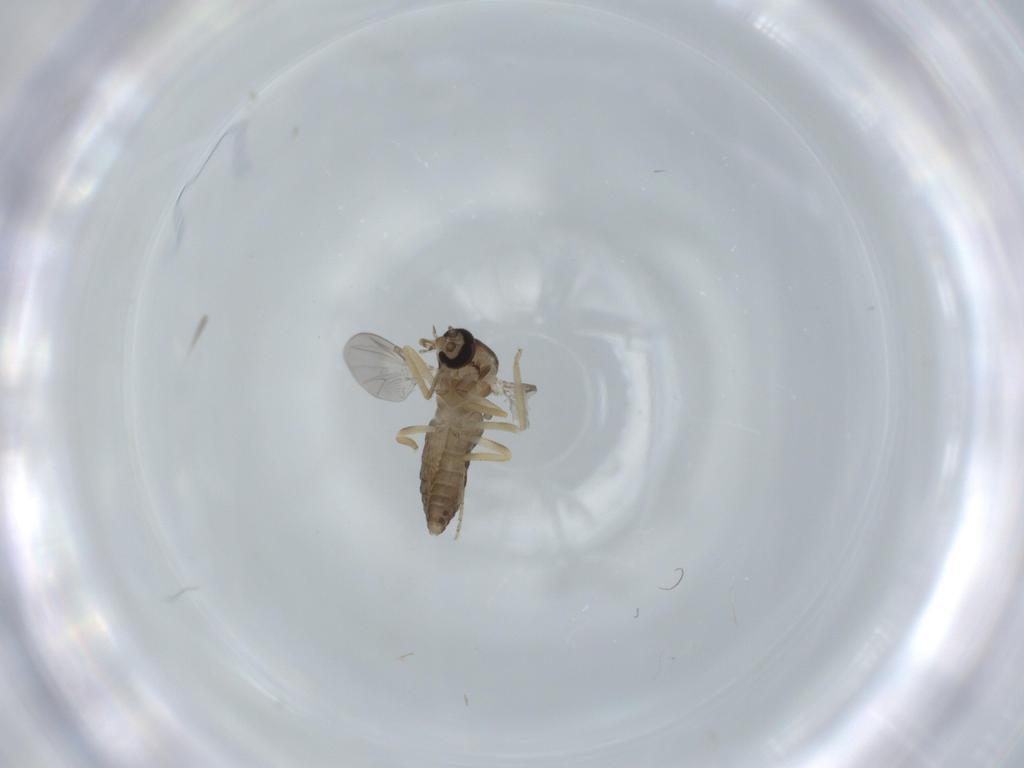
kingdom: Animalia
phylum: Arthropoda
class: Insecta
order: Diptera
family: Ceratopogonidae
